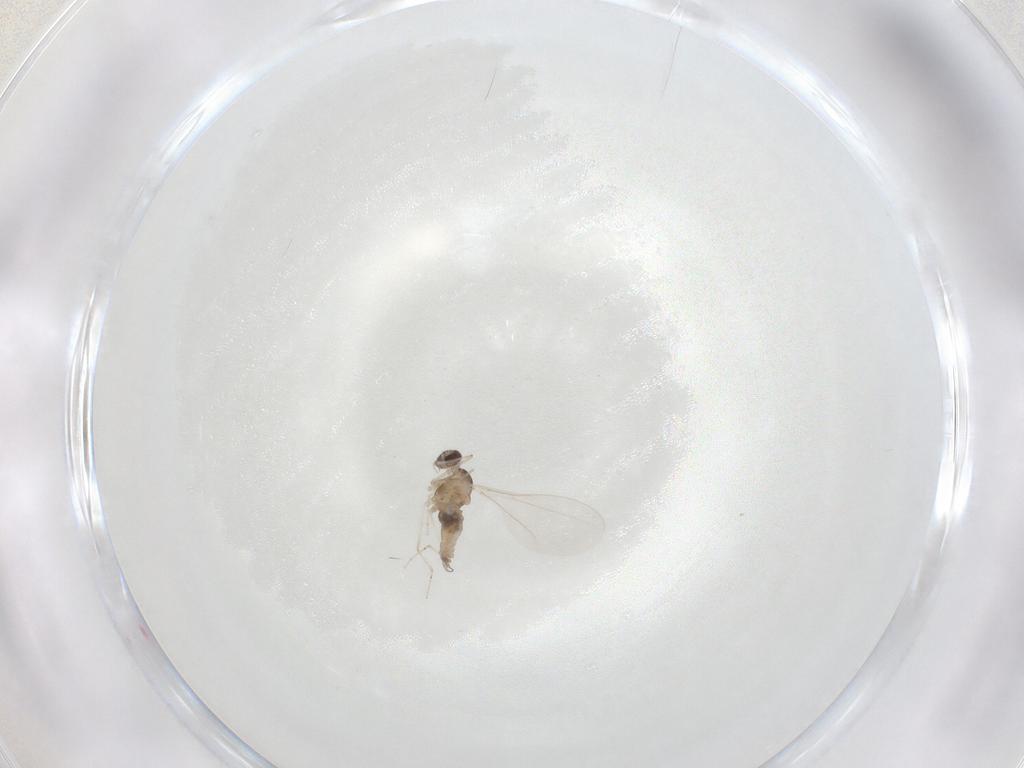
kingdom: Animalia
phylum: Arthropoda
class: Insecta
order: Diptera
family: Cecidomyiidae
